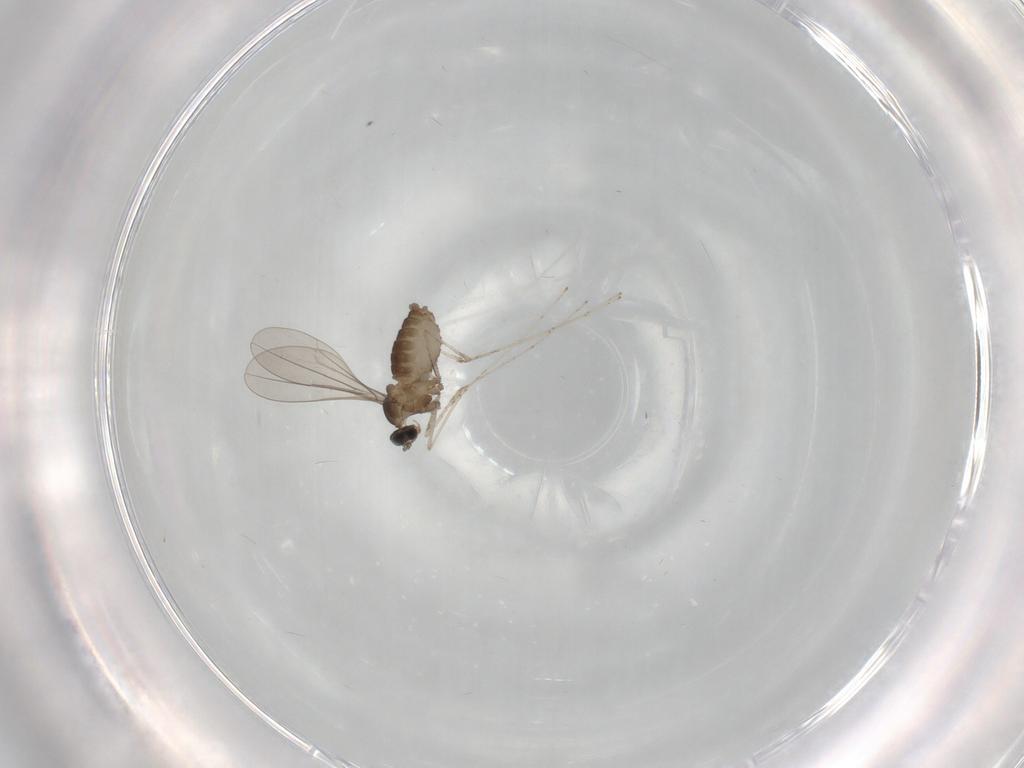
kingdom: Animalia
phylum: Arthropoda
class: Insecta
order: Diptera
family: Cecidomyiidae
